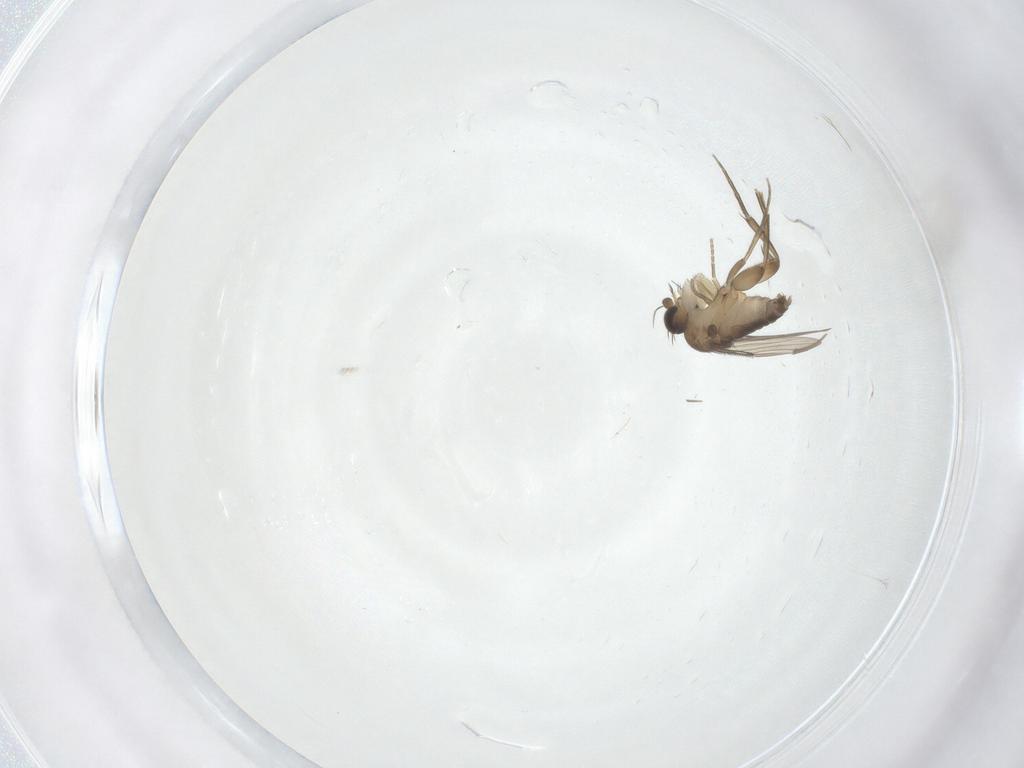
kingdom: Animalia
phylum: Arthropoda
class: Insecta
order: Diptera
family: Phoridae
